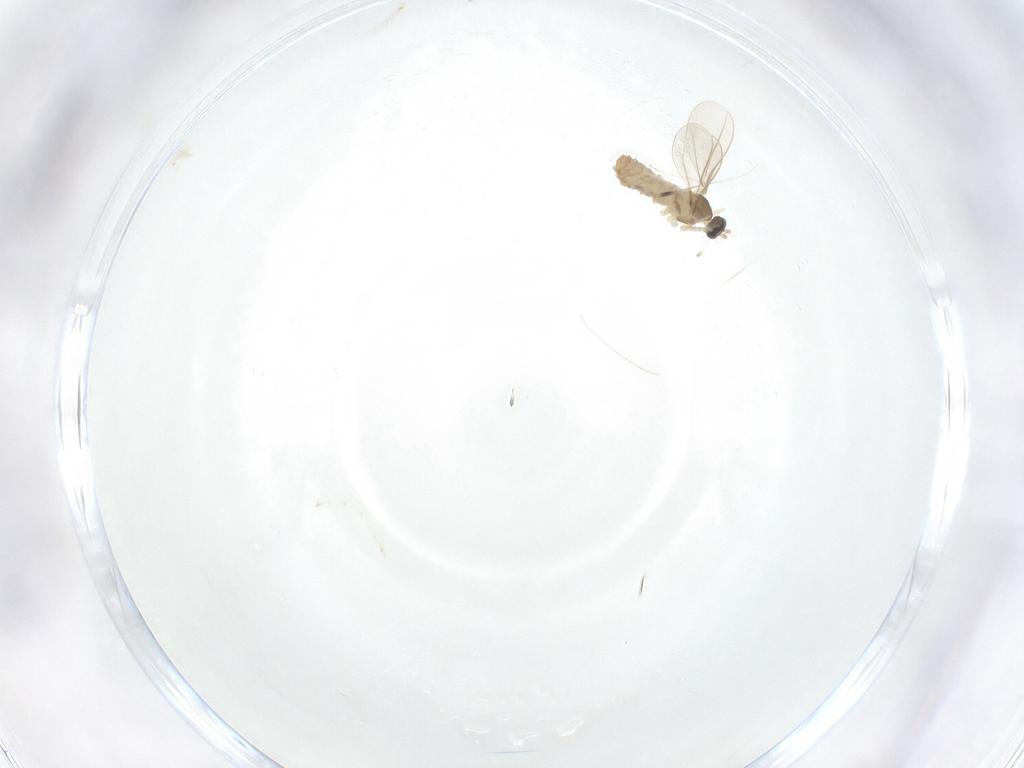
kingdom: Animalia
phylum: Arthropoda
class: Insecta
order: Diptera
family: Cecidomyiidae
